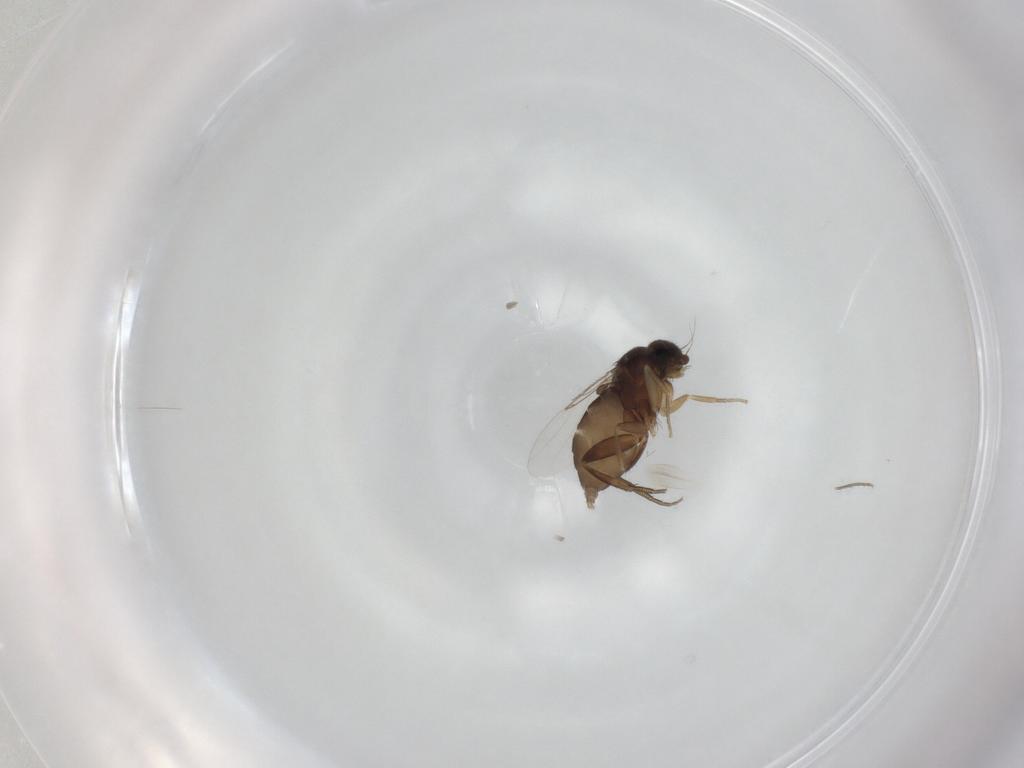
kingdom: Animalia
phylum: Arthropoda
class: Insecta
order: Diptera
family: Phoridae
